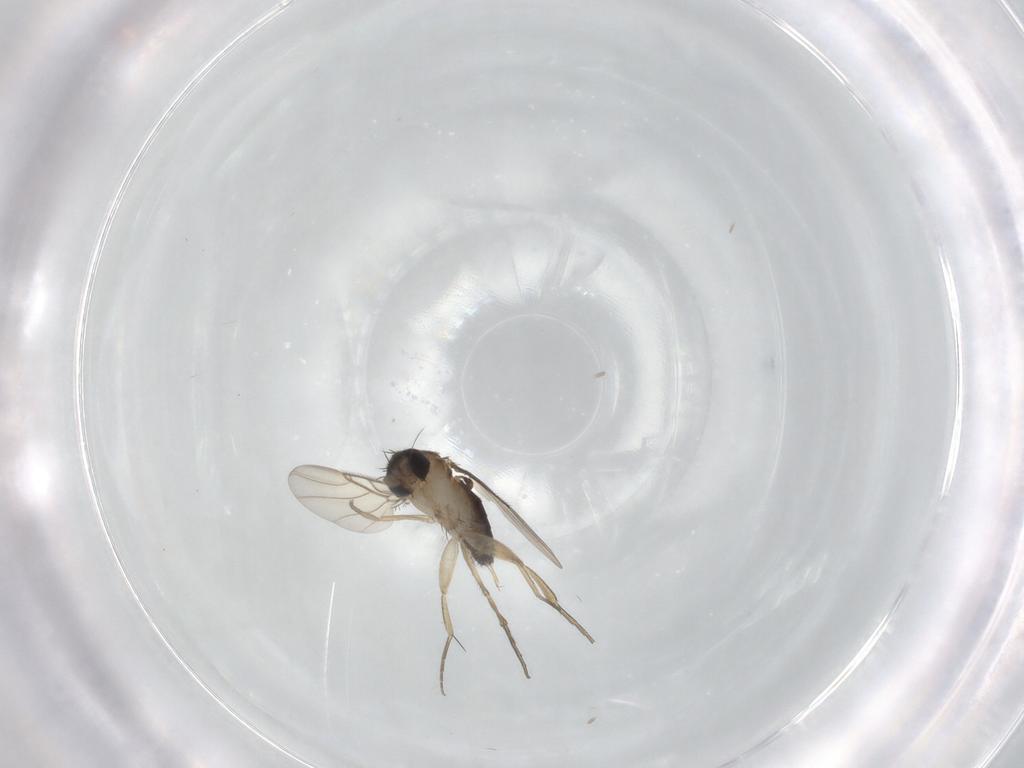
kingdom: Animalia
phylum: Arthropoda
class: Insecta
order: Diptera
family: Phoridae
